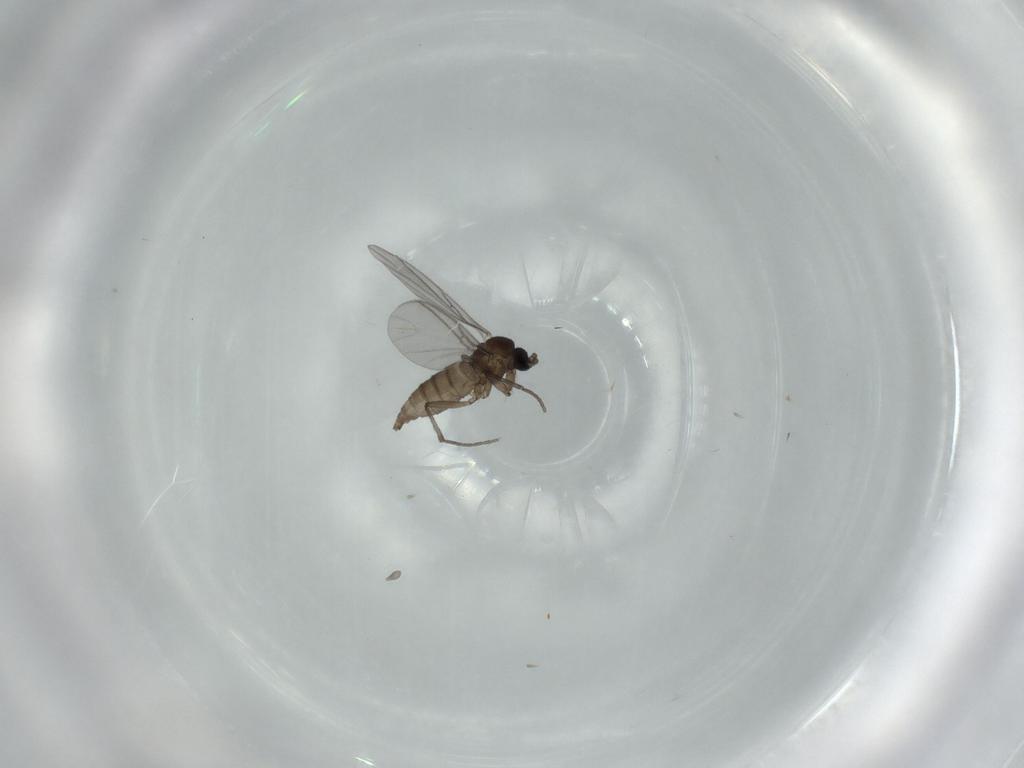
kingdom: Animalia
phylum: Arthropoda
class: Insecta
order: Diptera
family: Sciaridae
